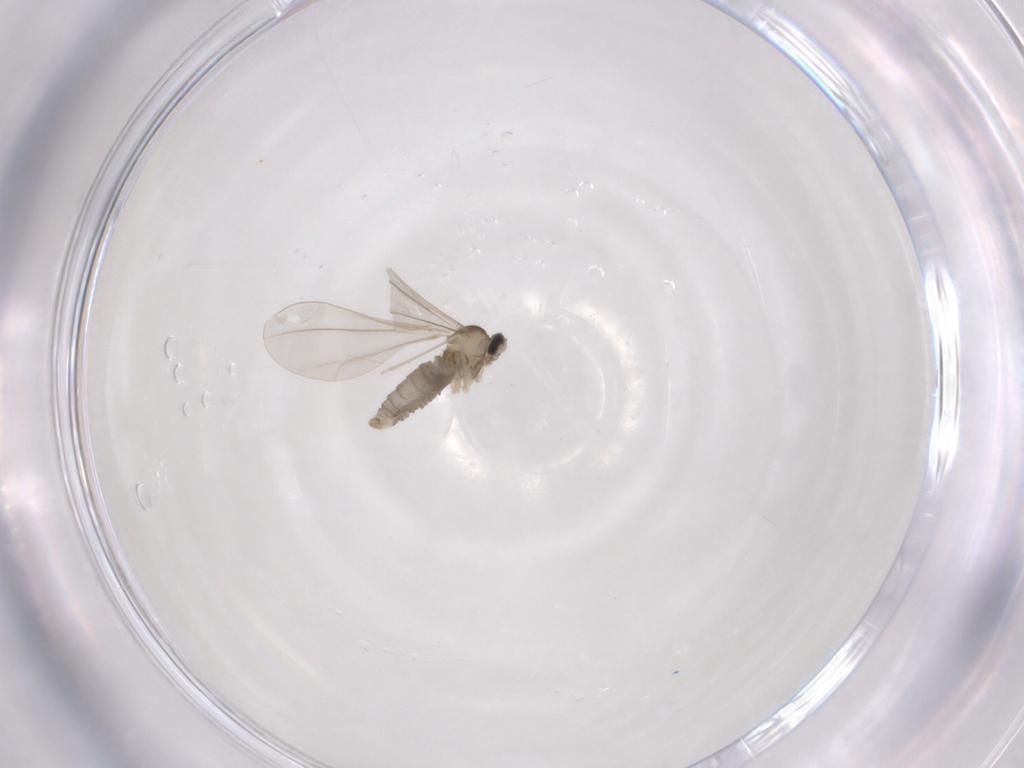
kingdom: Animalia
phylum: Arthropoda
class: Insecta
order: Diptera
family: Cecidomyiidae
